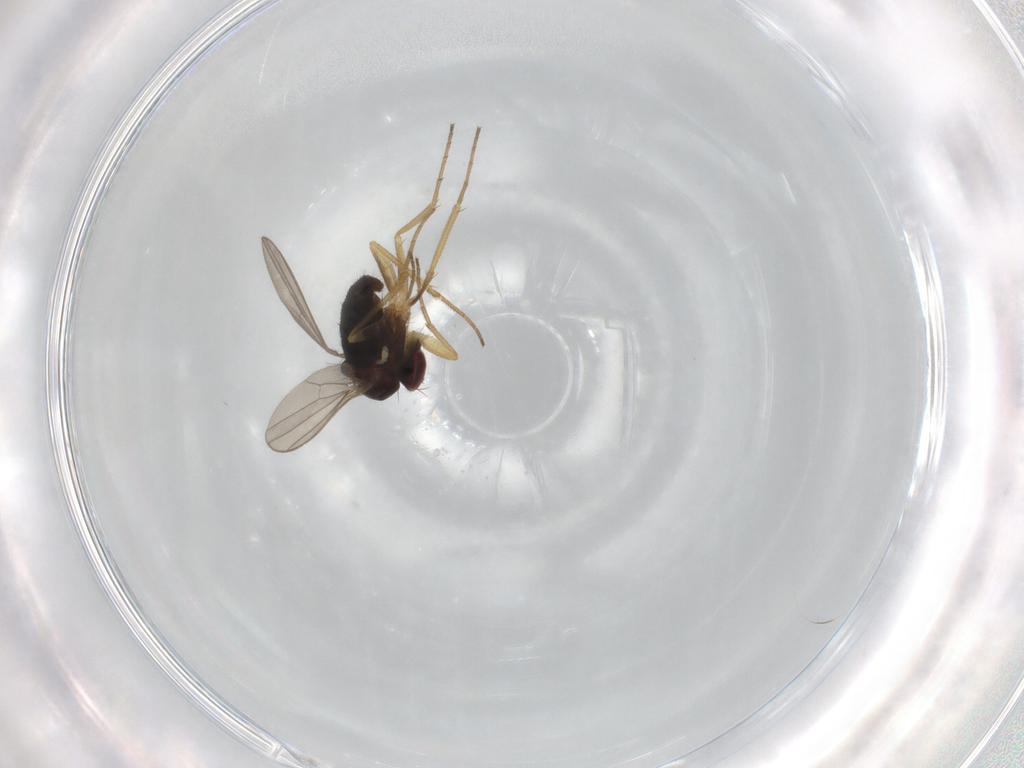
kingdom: Animalia
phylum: Arthropoda
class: Insecta
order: Diptera
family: Dolichopodidae
